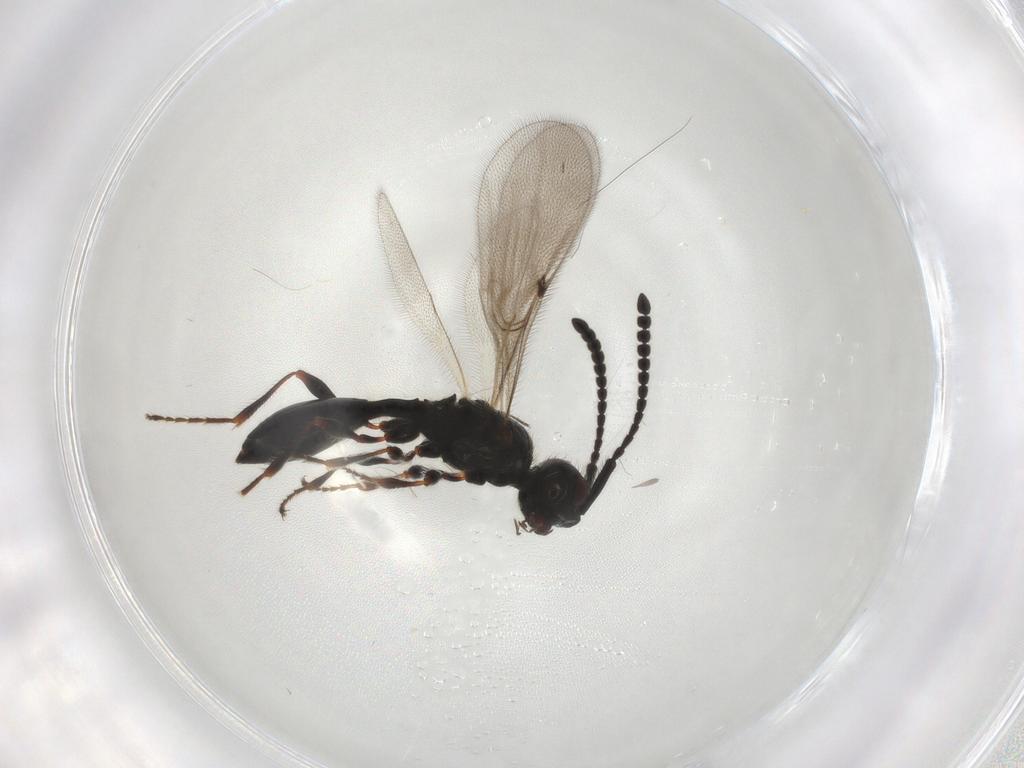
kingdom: Animalia
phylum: Arthropoda
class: Insecta
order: Hymenoptera
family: Diapriidae
